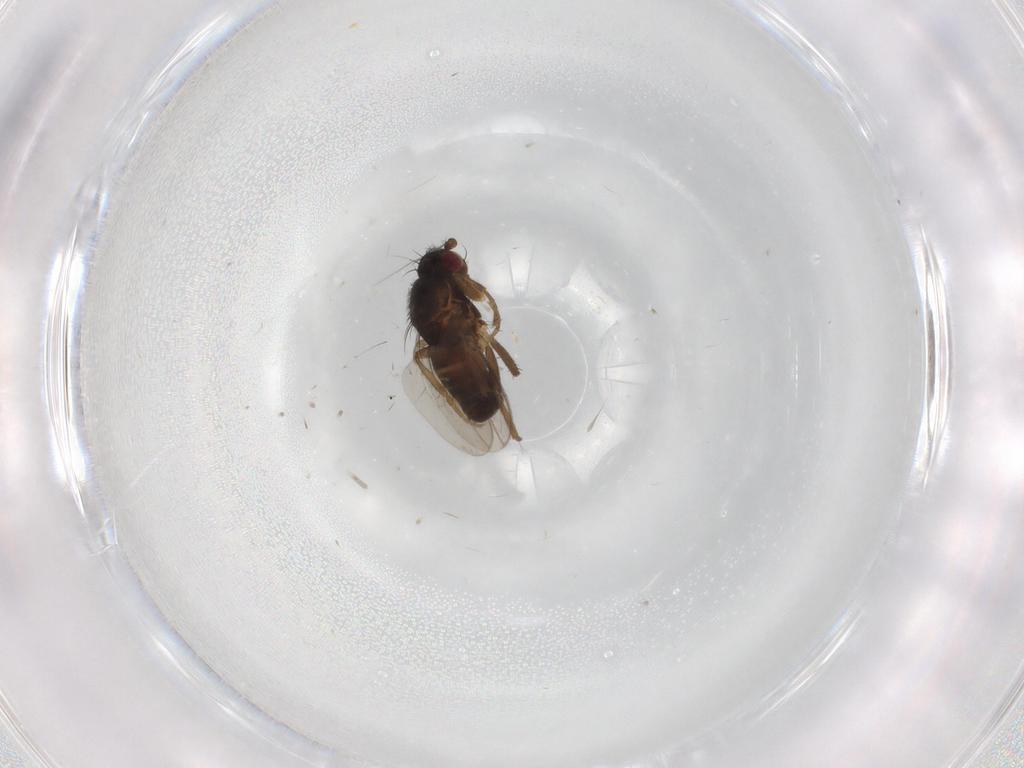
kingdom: Animalia
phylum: Arthropoda
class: Insecta
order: Diptera
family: Sphaeroceridae
